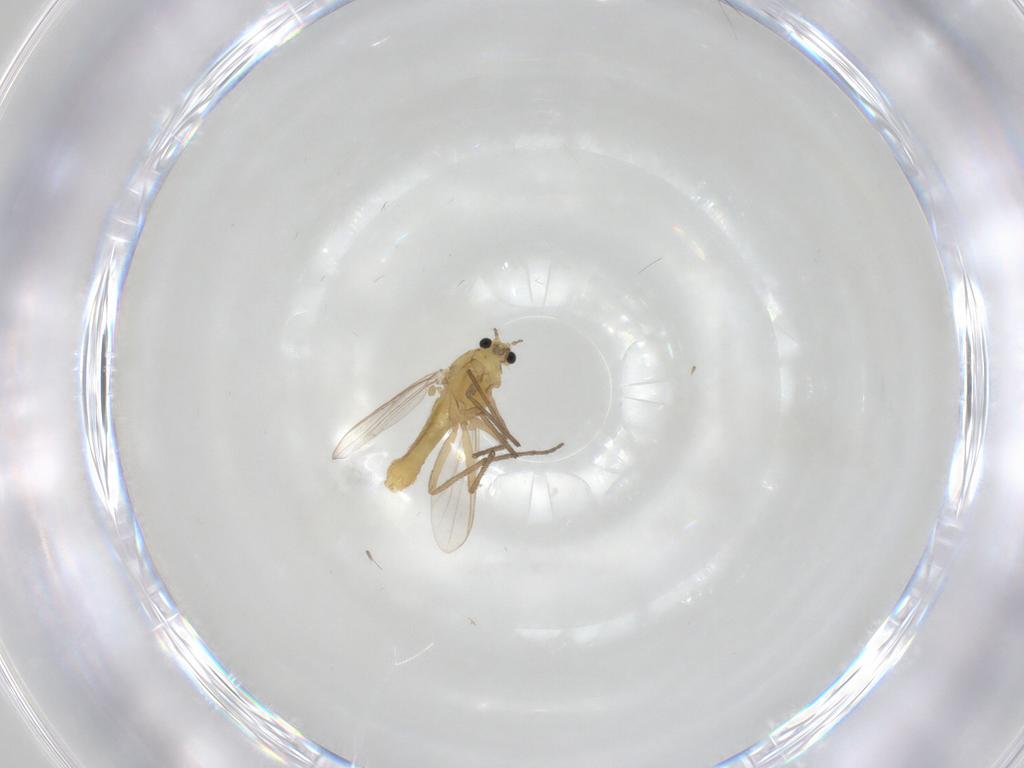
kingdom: Animalia
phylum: Arthropoda
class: Insecta
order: Diptera
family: Chironomidae
